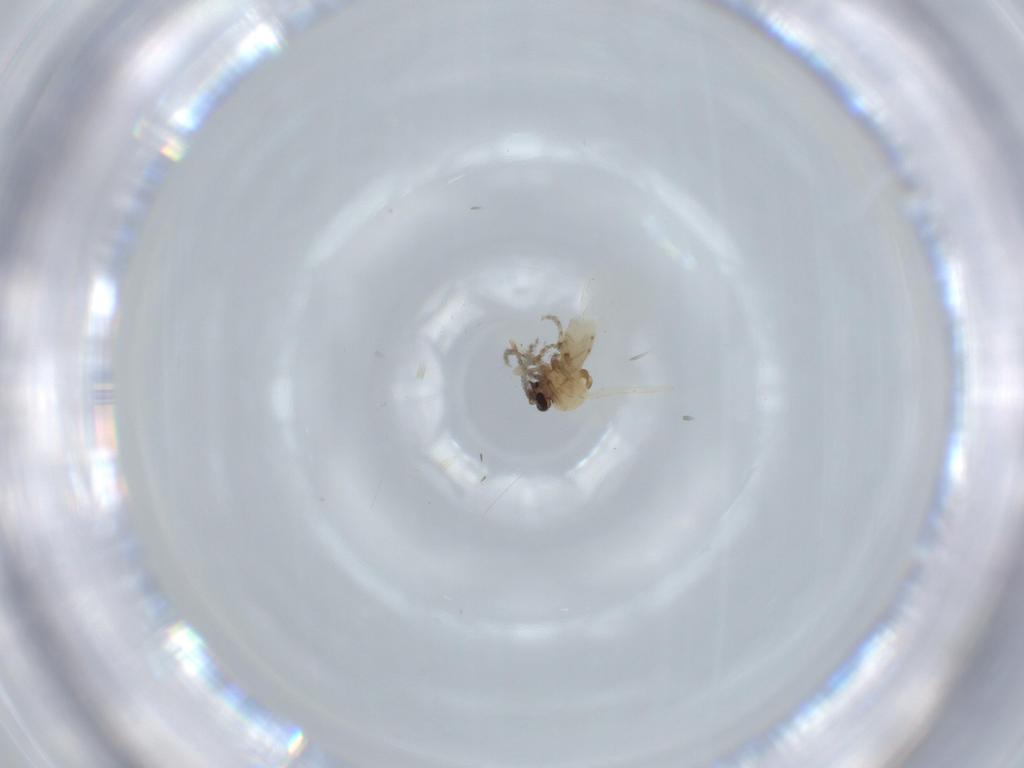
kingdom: Animalia
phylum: Arthropoda
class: Insecta
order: Diptera
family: Ceratopogonidae
